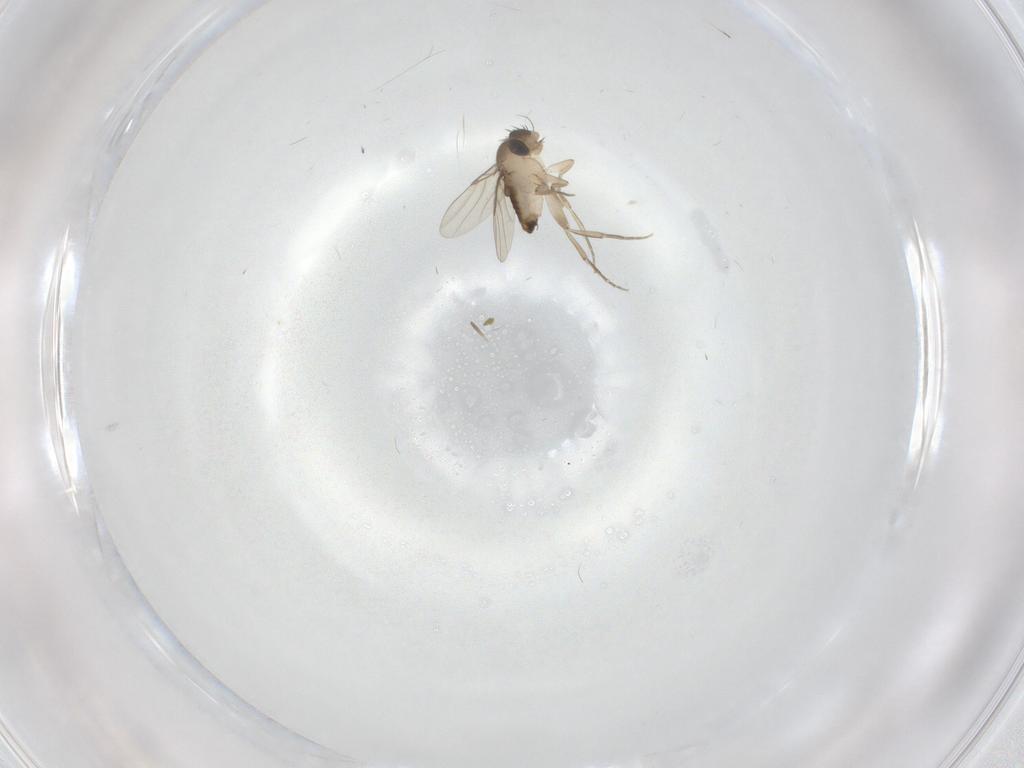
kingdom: Animalia
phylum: Arthropoda
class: Insecta
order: Diptera
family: Phoridae
